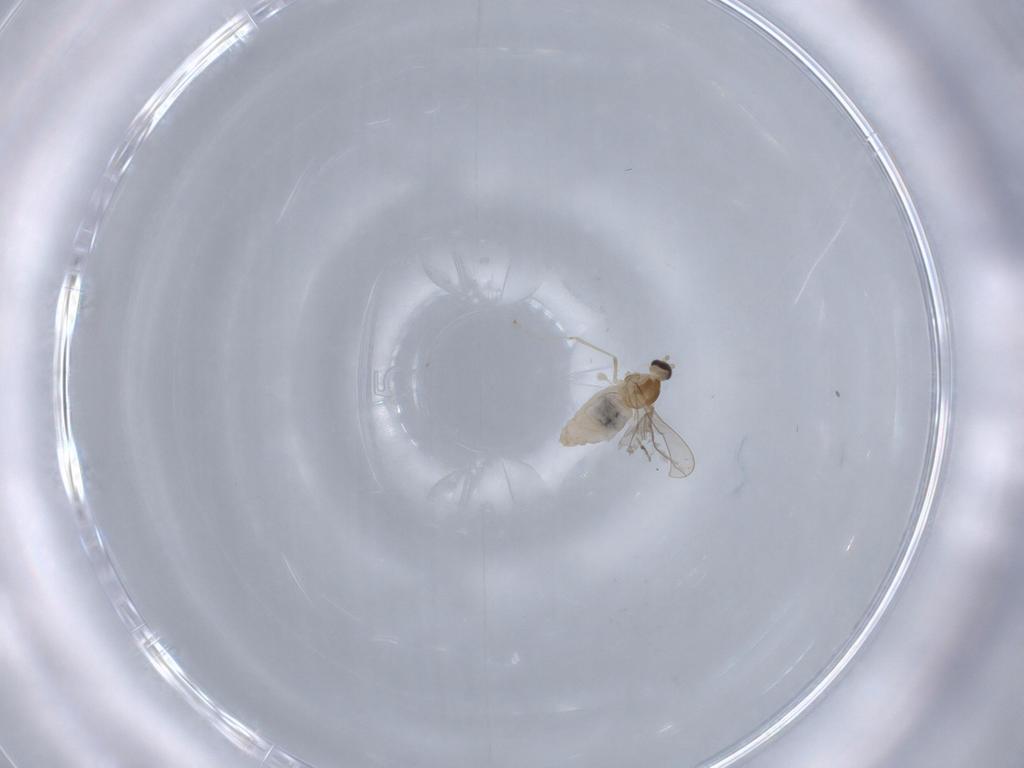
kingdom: Animalia
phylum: Arthropoda
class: Insecta
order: Diptera
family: Cecidomyiidae
